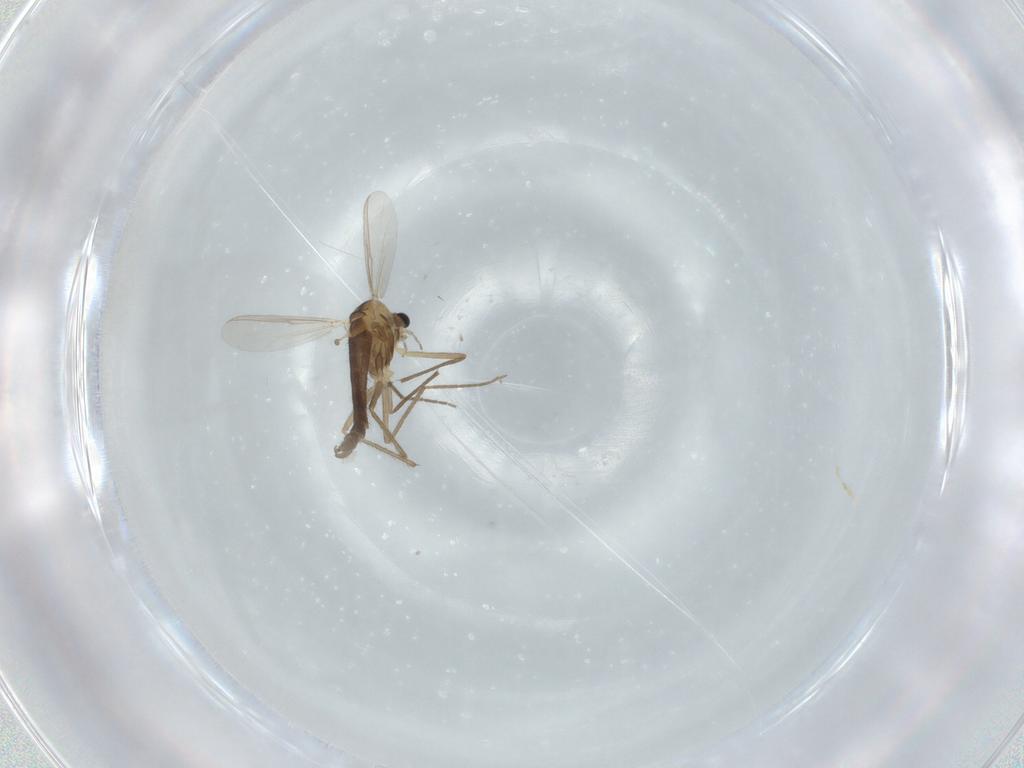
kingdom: Animalia
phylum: Arthropoda
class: Insecta
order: Diptera
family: Chironomidae
